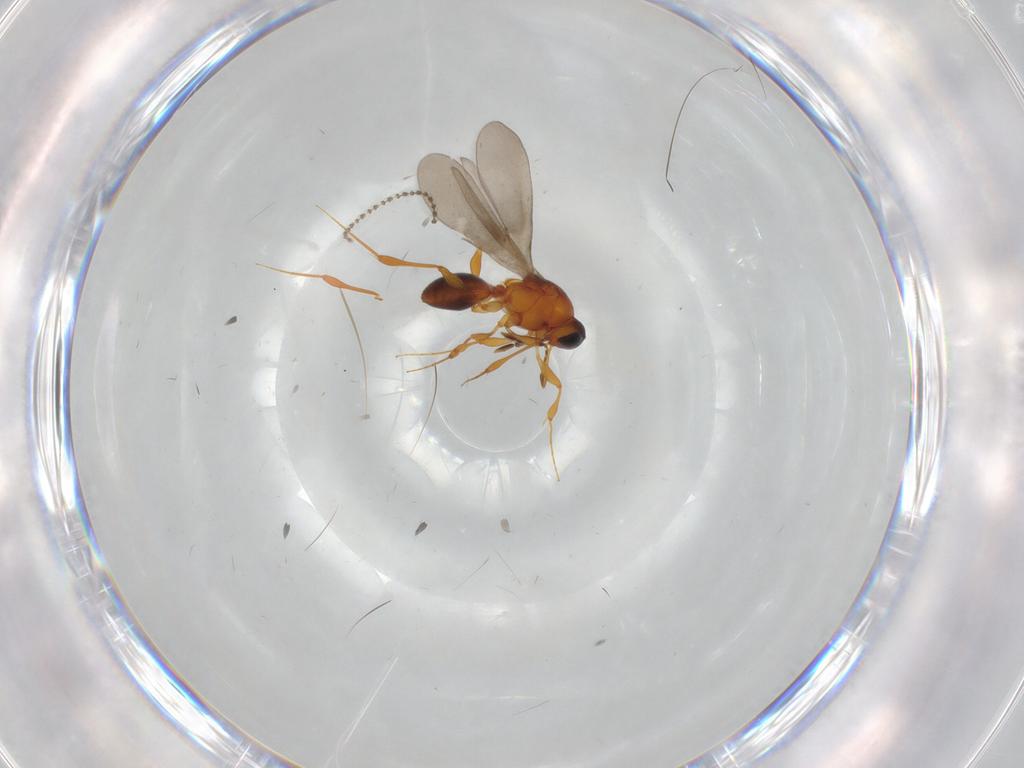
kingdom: Animalia
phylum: Arthropoda
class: Insecta
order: Hymenoptera
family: Platygastridae
